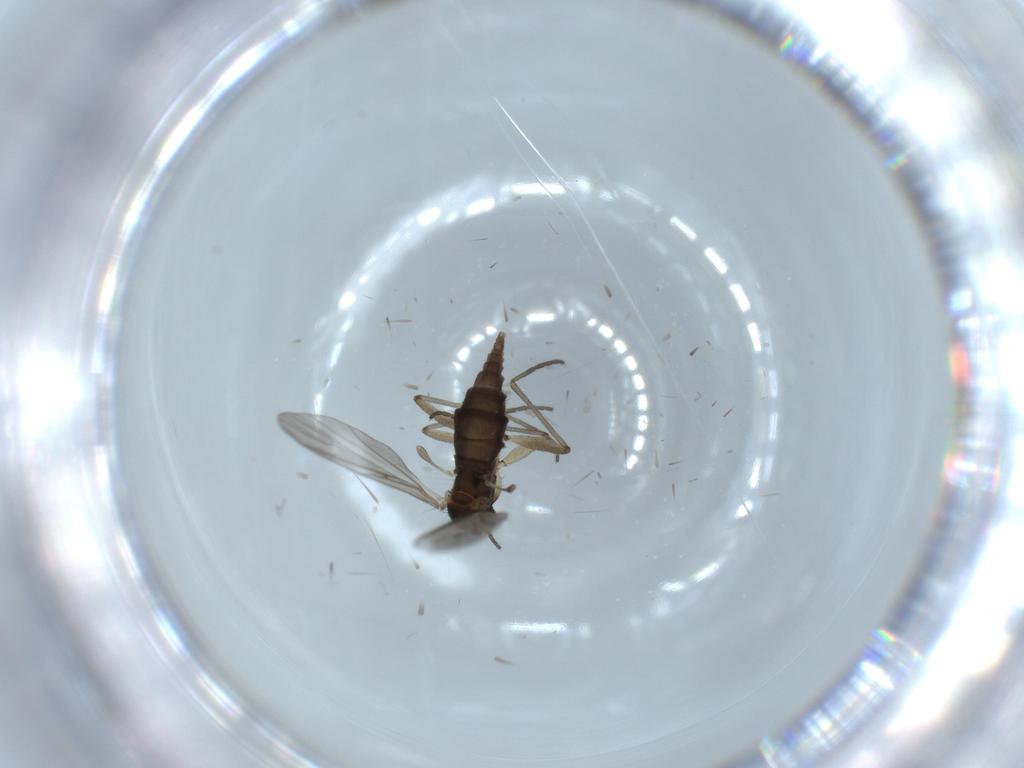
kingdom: Animalia
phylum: Arthropoda
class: Insecta
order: Diptera
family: Sciaridae
